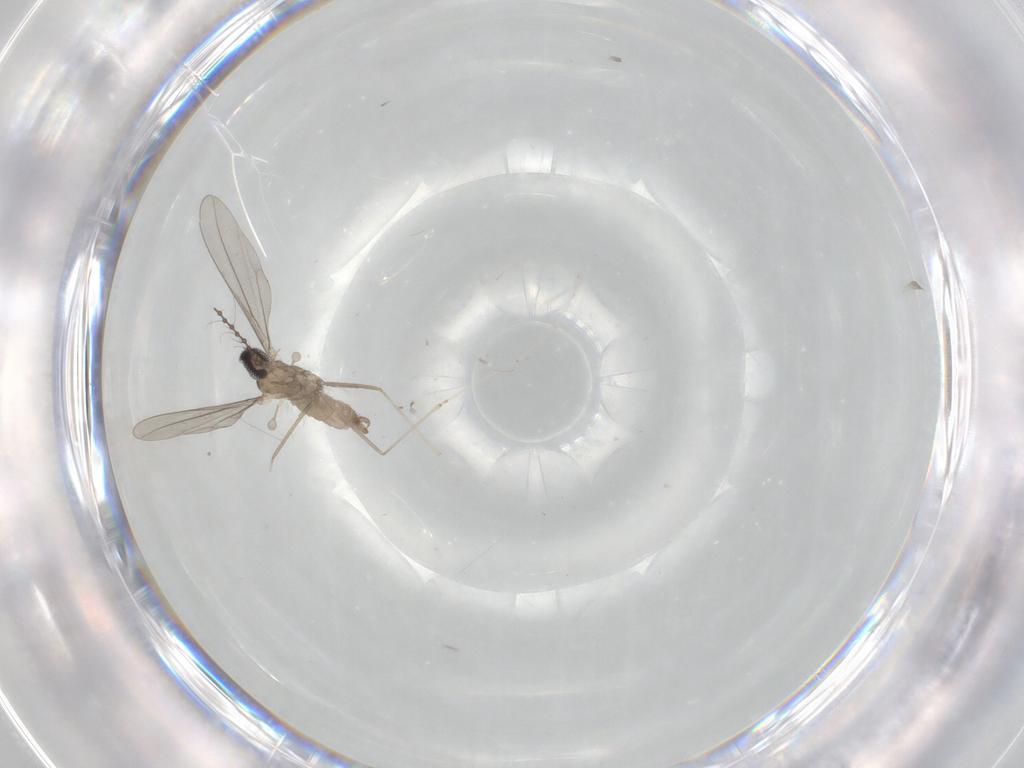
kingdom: Animalia
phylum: Arthropoda
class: Insecta
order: Diptera
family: Cecidomyiidae
